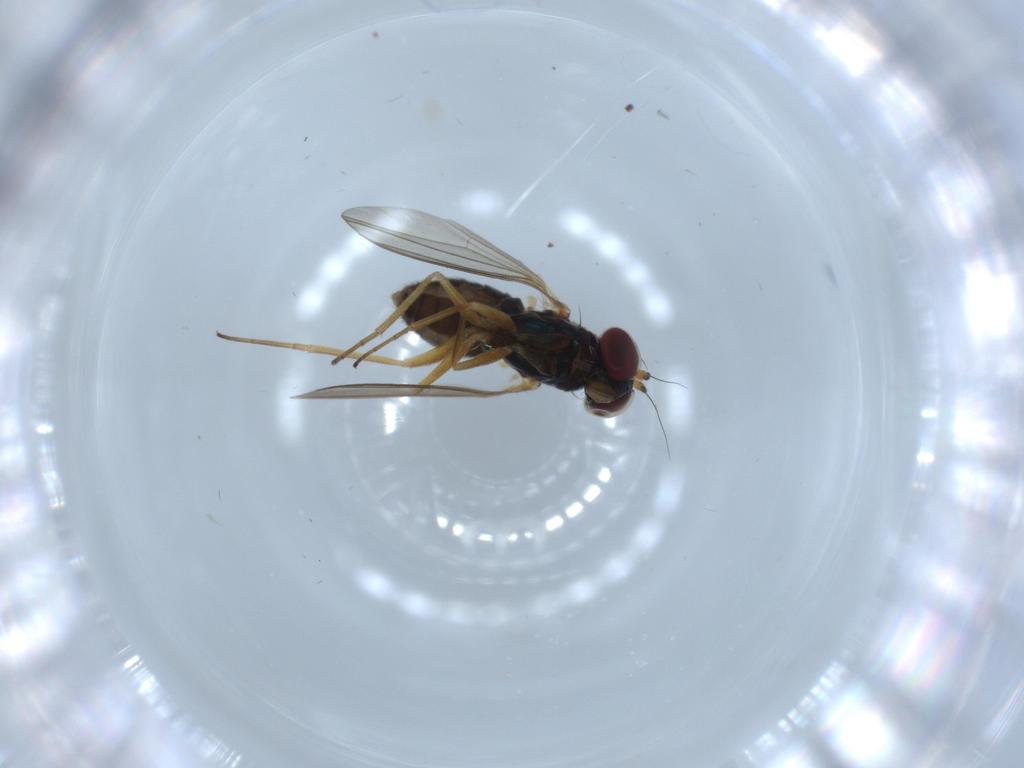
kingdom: Animalia
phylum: Arthropoda
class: Insecta
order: Diptera
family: Dolichopodidae
